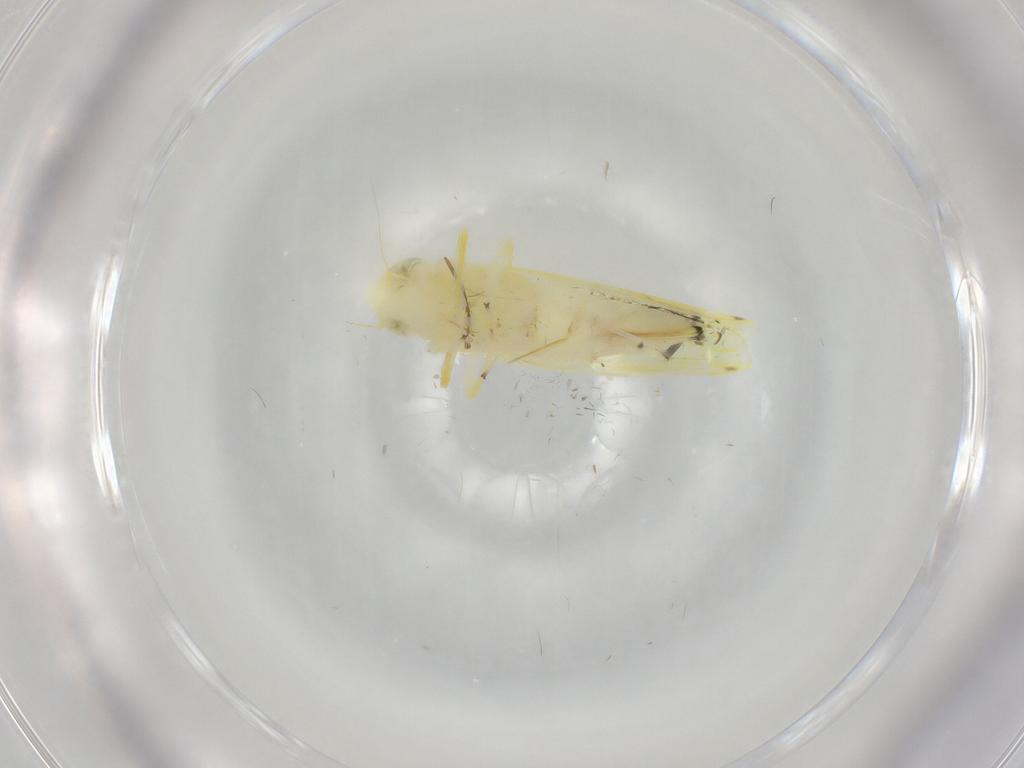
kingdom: Animalia
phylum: Arthropoda
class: Insecta
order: Hemiptera
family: Cicadellidae
